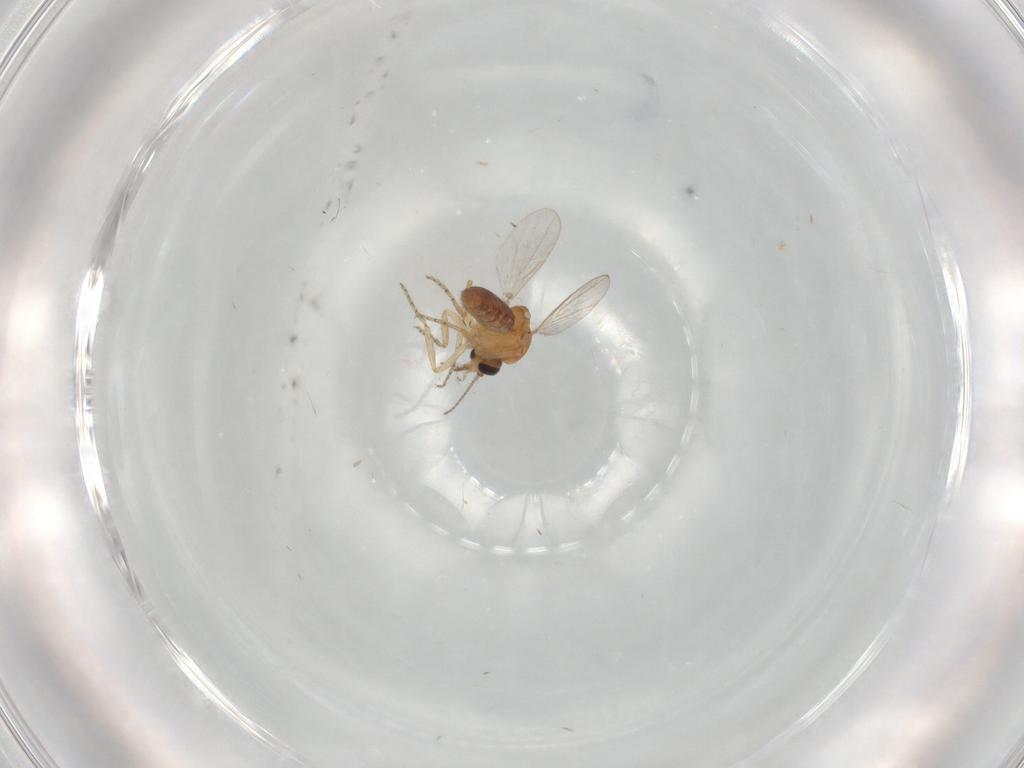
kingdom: Animalia
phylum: Arthropoda
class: Insecta
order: Diptera
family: Ceratopogonidae
